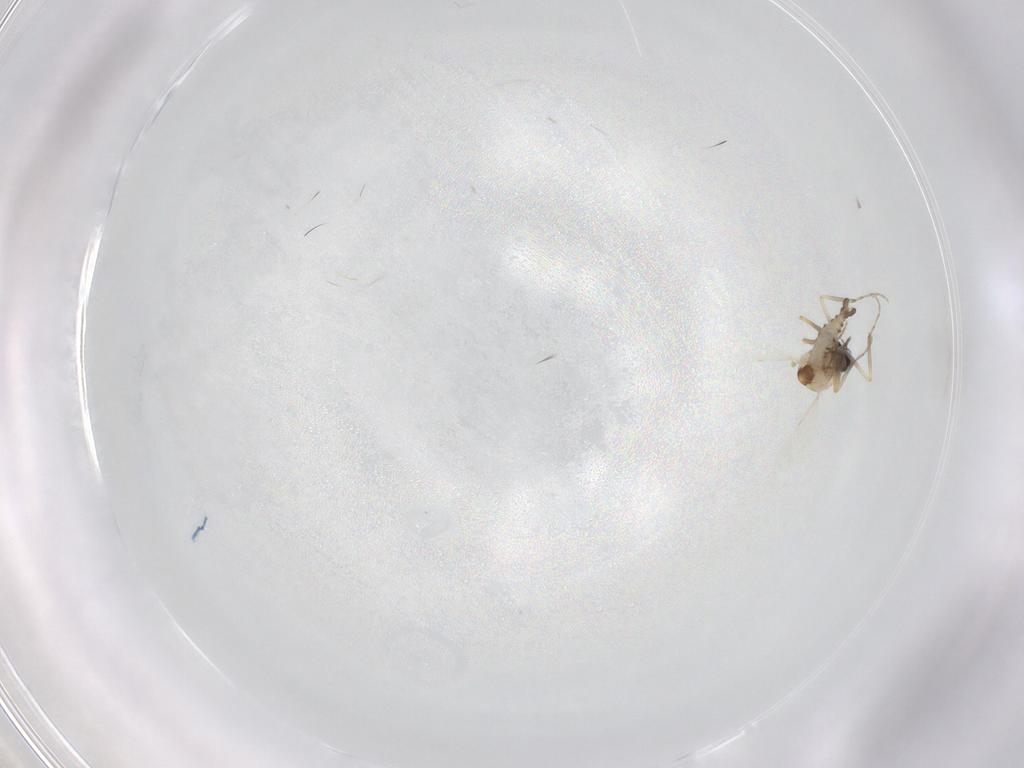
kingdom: Animalia
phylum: Arthropoda
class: Insecta
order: Diptera
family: Ceratopogonidae
